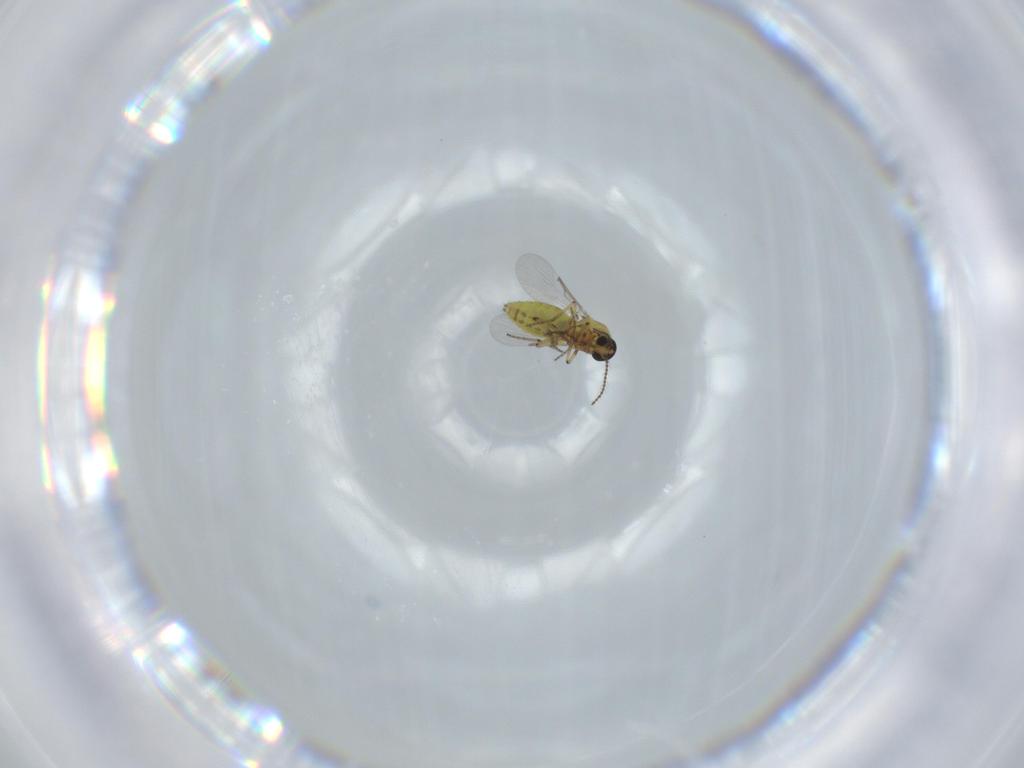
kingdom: Animalia
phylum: Arthropoda
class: Insecta
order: Diptera
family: Ceratopogonidae
